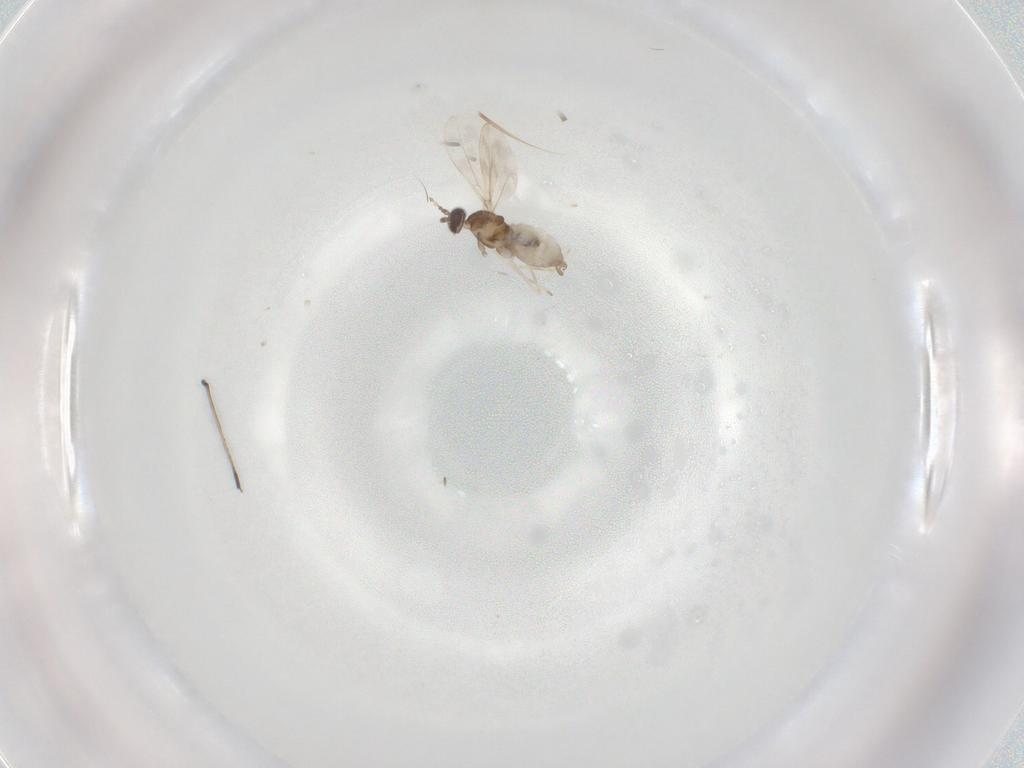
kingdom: Animalia
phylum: Arthropoda
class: Insecta
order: Diptera
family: Cecidomyiidae
